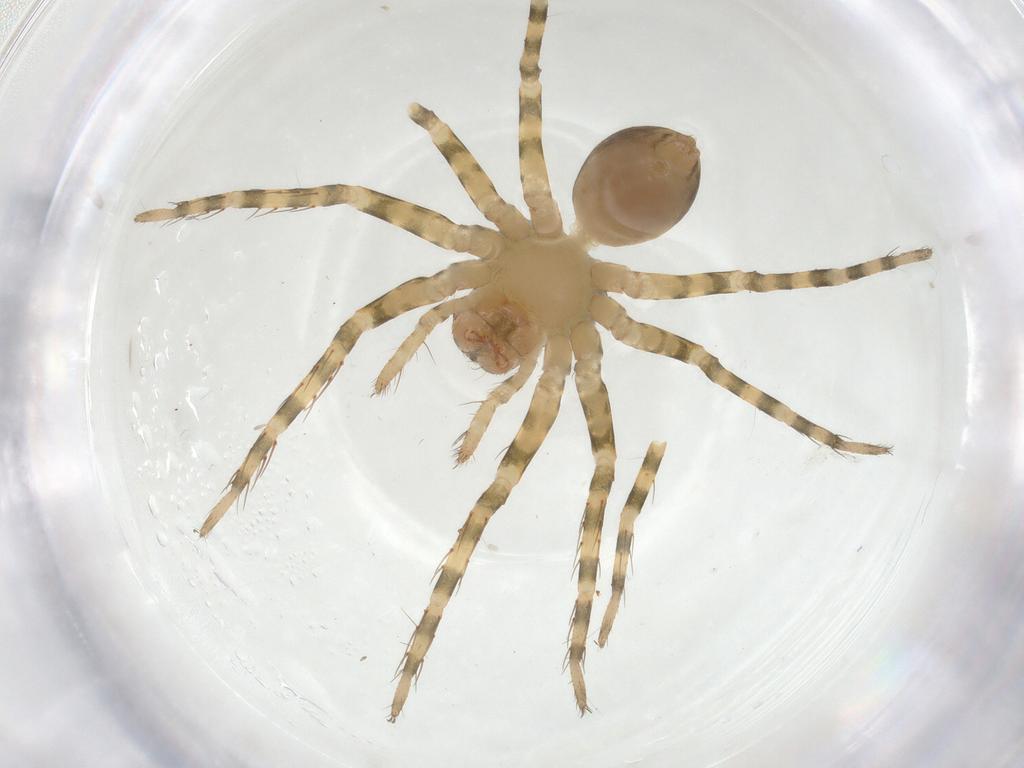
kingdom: Animalia
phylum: Arthropoda
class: Arachnida
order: Araneae
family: Trechaleidae
